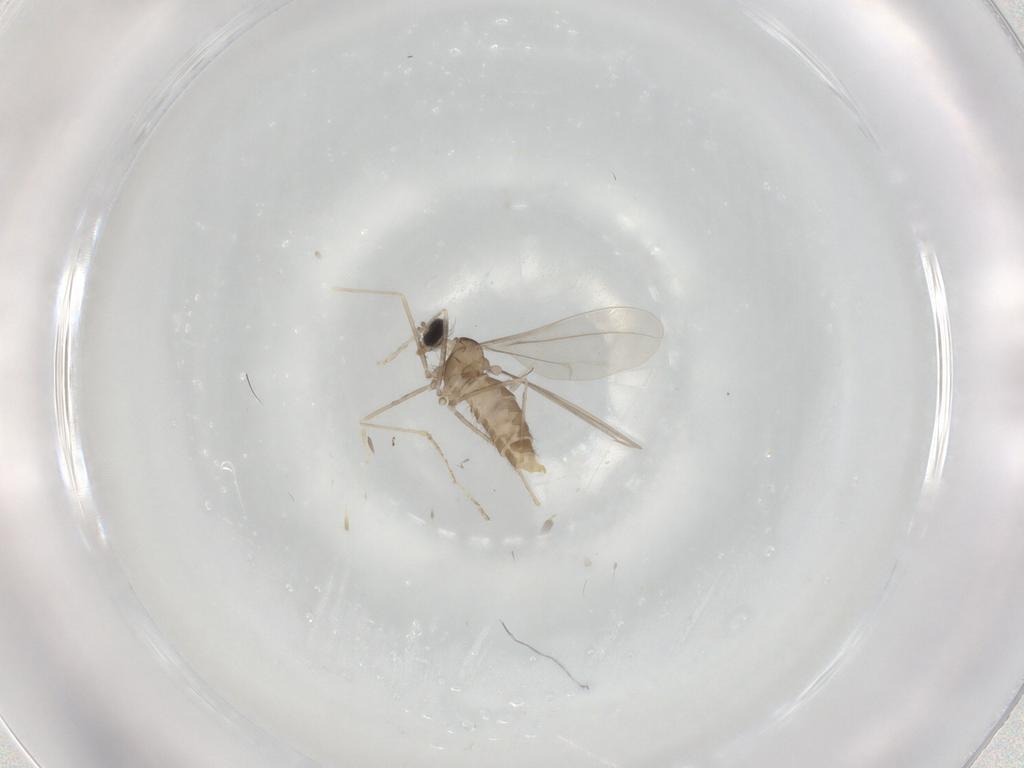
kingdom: Animalia
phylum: Arthropoda
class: Insecta
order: Diptera
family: Cecidomyiidae
